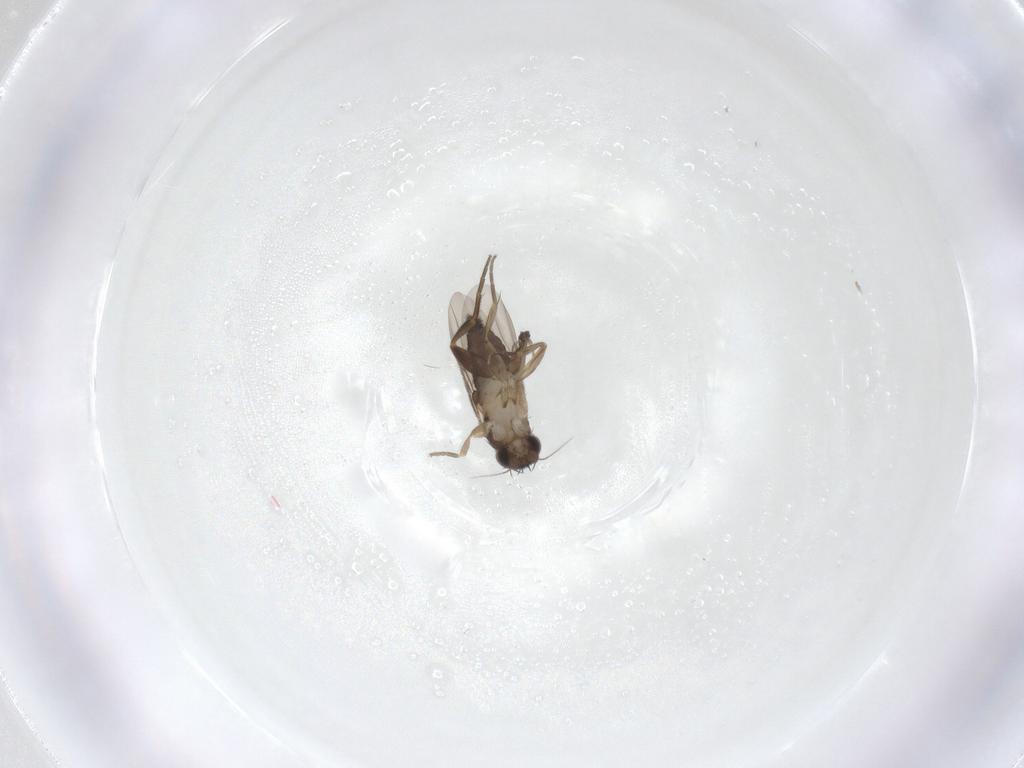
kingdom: Animalia
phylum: Arthropoda
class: Insecta
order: Diptera
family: Phoridae
